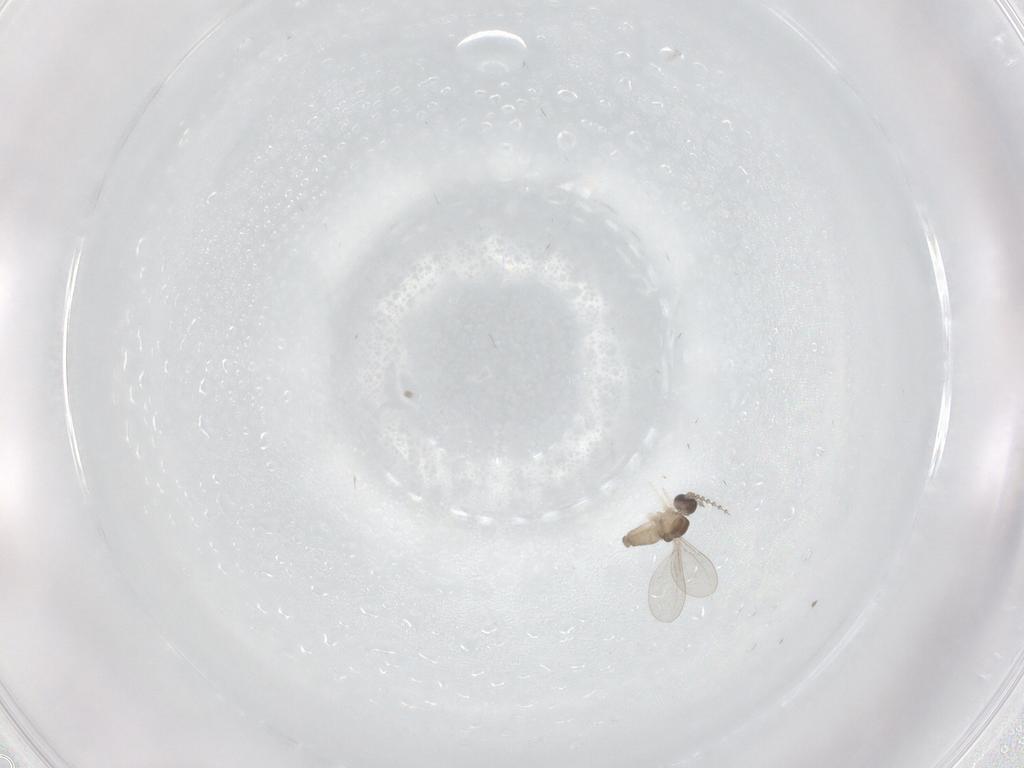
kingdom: Animalia
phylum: Arthropoda
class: Insecta
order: Diptera
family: Cecidomyiidae
